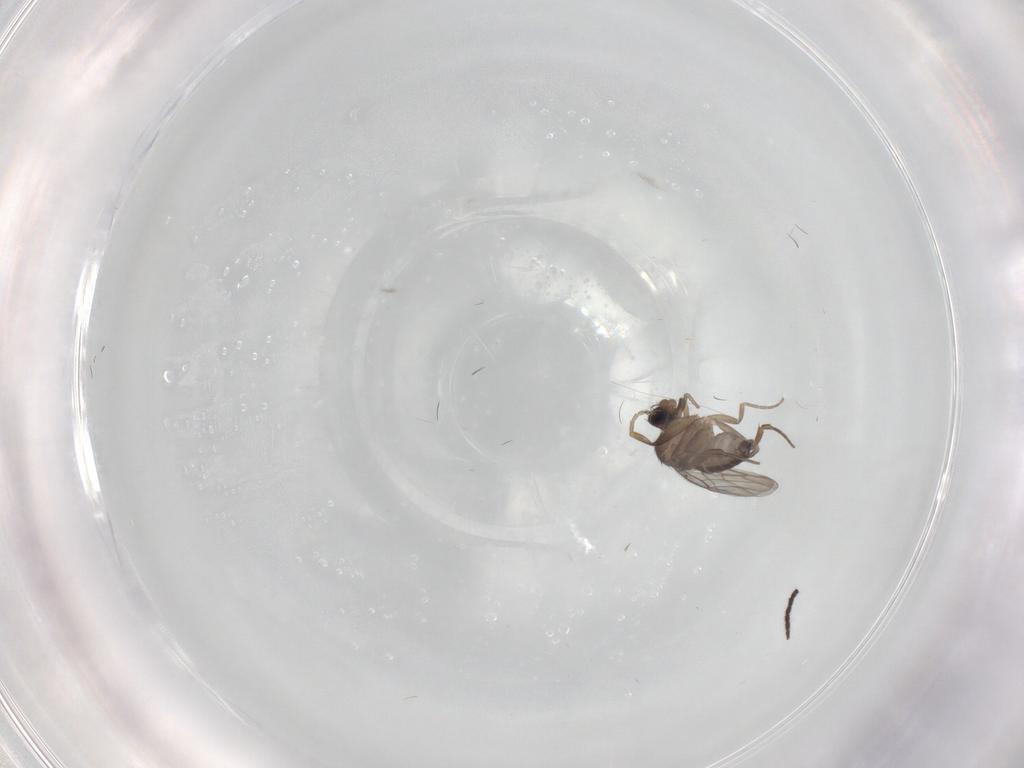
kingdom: Animalia
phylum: Arthropoda
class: Insecta
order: Diptera
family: Phoridae
